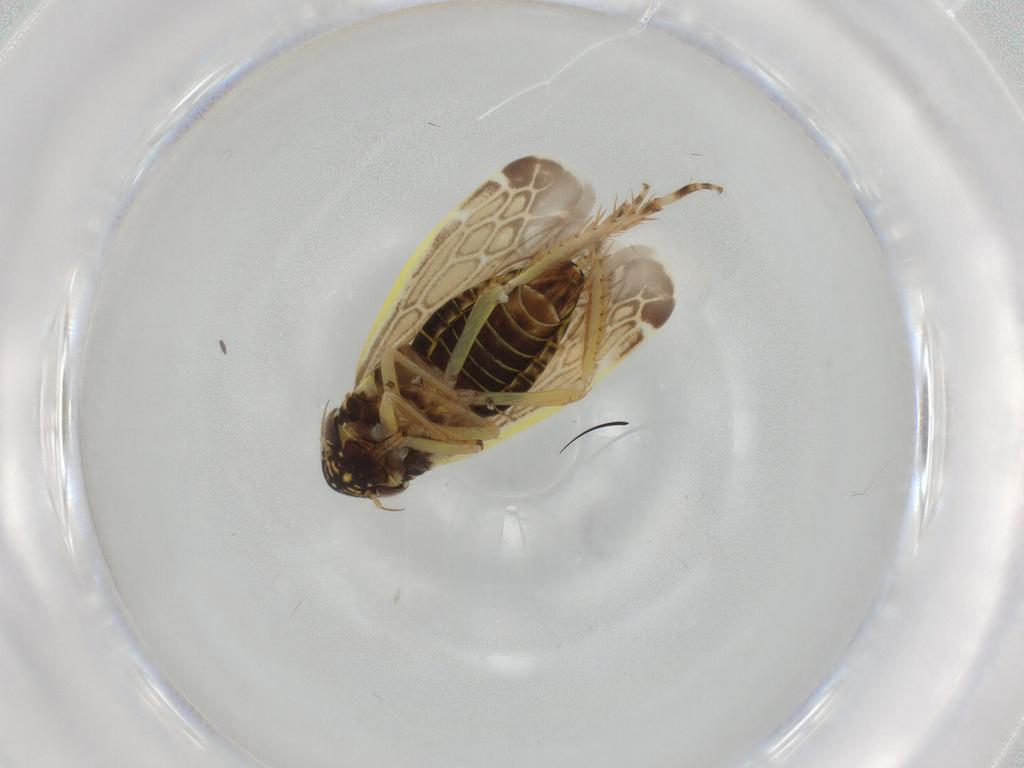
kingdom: Animalia
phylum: Arthropoda
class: Insecta
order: Hemiptera
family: Cicadellidae
